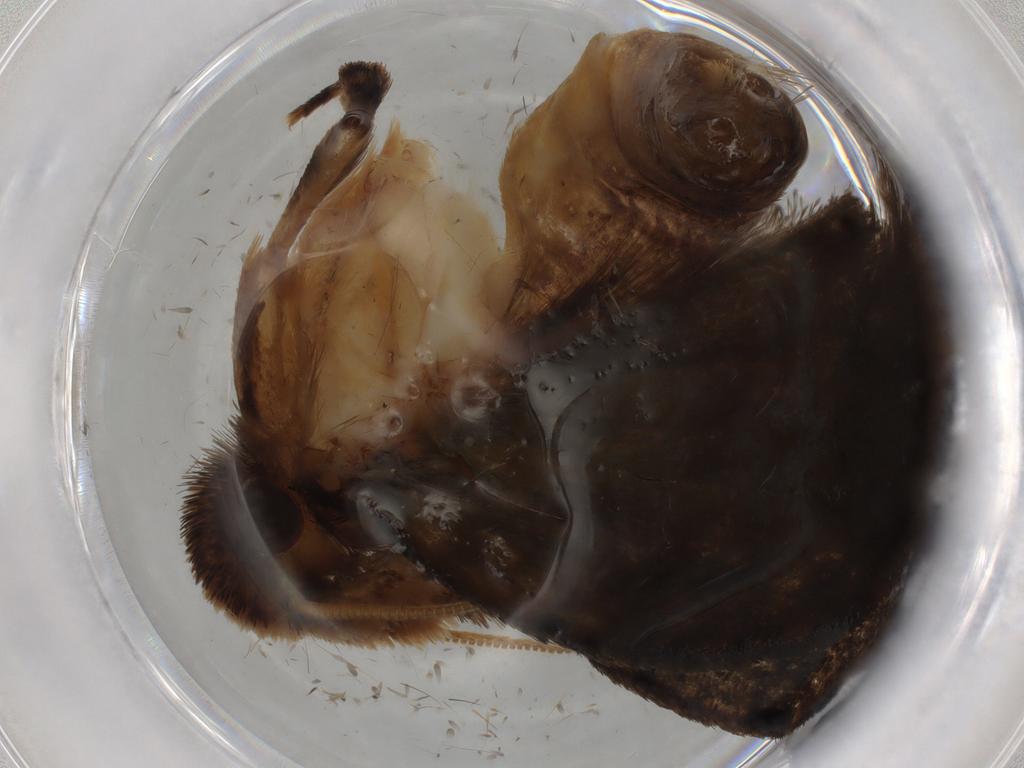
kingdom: Animalia
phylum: Arthropoda
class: Insecta
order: Lepidoptera
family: Tineidae
